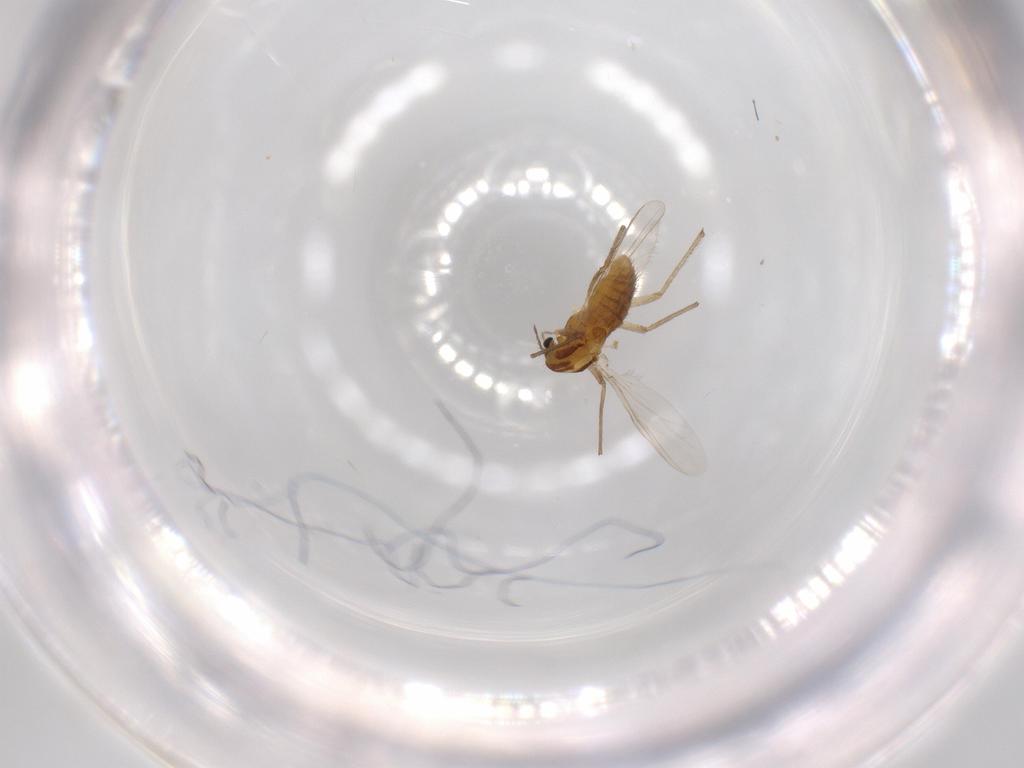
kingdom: Animalia
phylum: Arthropoda
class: Insecta
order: Diptera
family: Chironomidae
